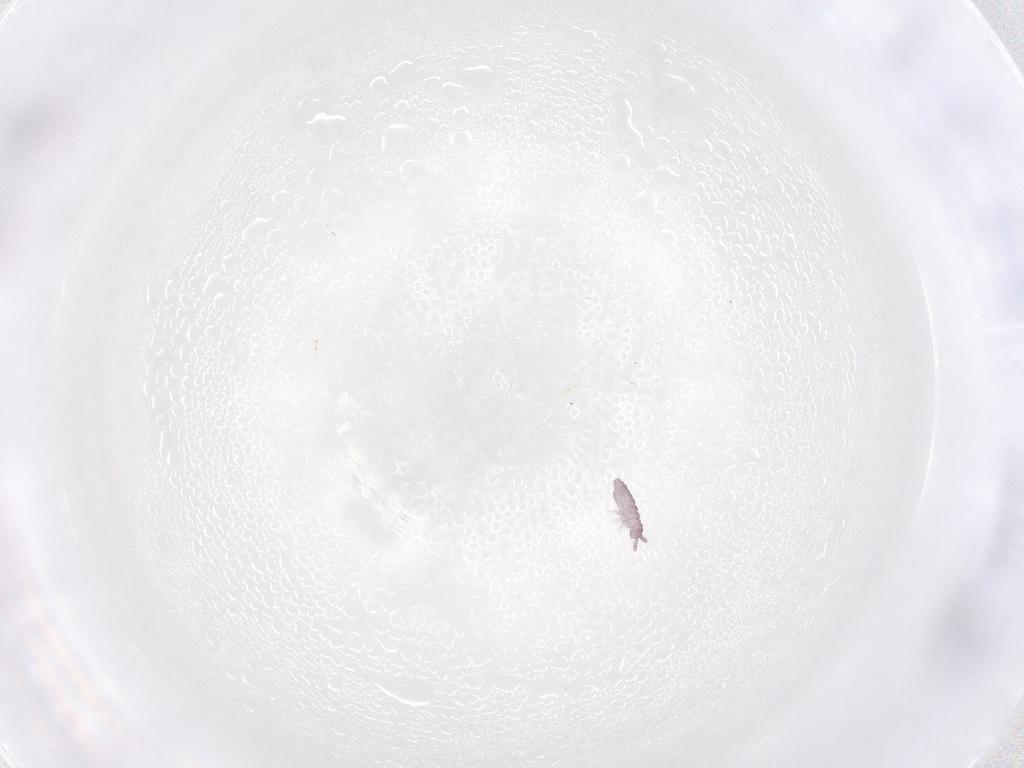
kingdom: Animalia
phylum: Arthropoda
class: Collembola
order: Poduromorpha
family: Hypogastruridae
